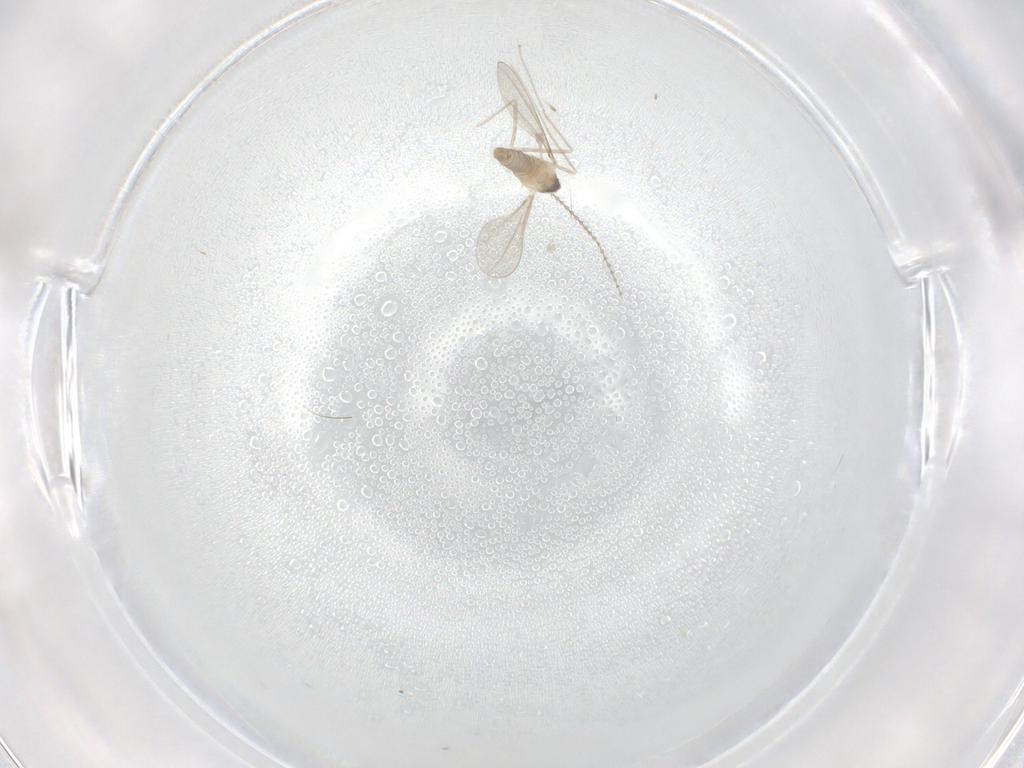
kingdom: Animalia
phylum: Arthropoda
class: Insecta
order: Diptera
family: Cecidomyiidae
